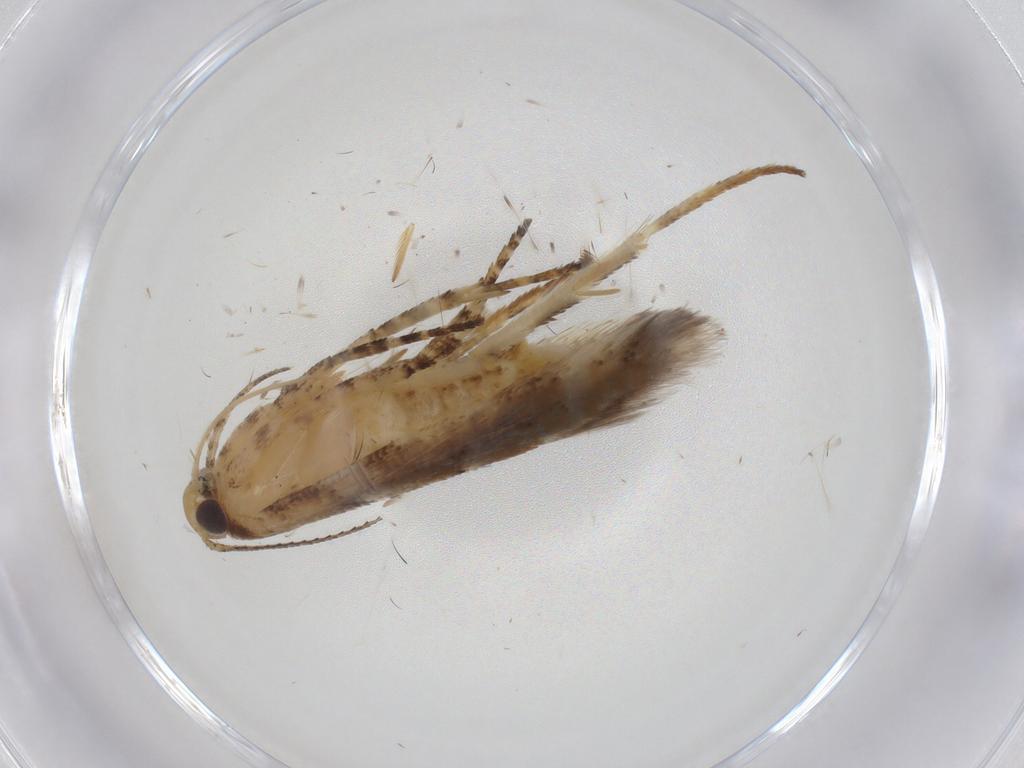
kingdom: Animalia
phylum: Arthropoda
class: Insecta
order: Lepidoptera
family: Gelechiidae
